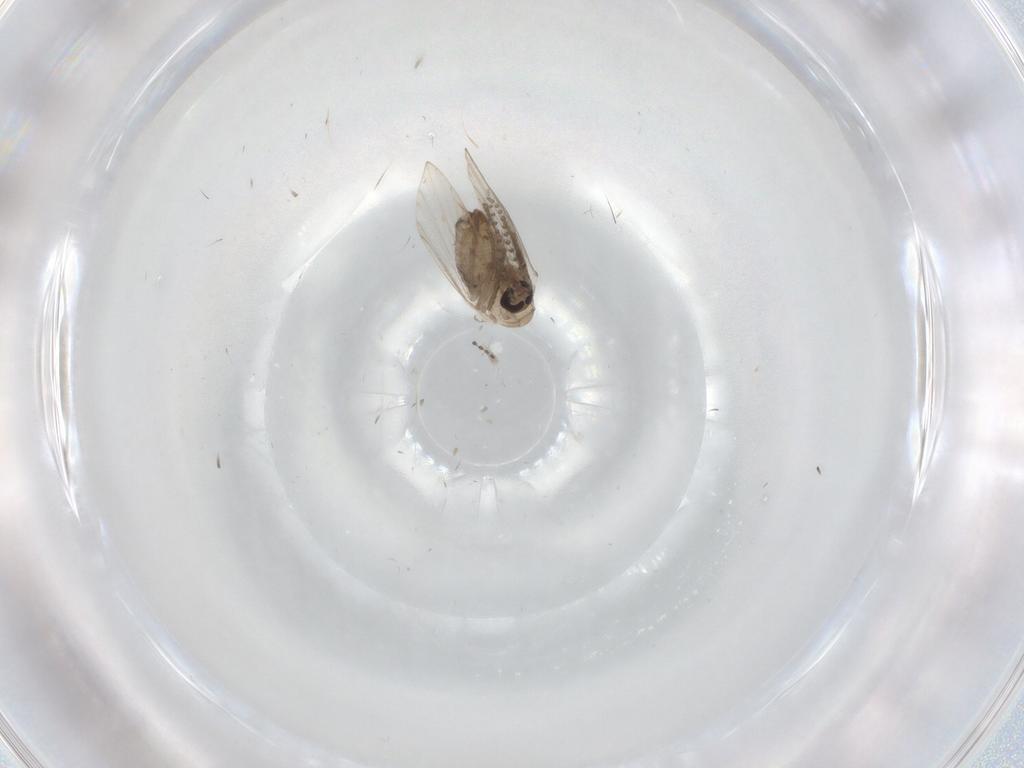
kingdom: Animalia
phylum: Arthropoda
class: Insecta
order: Diptera
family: Psychodidae
